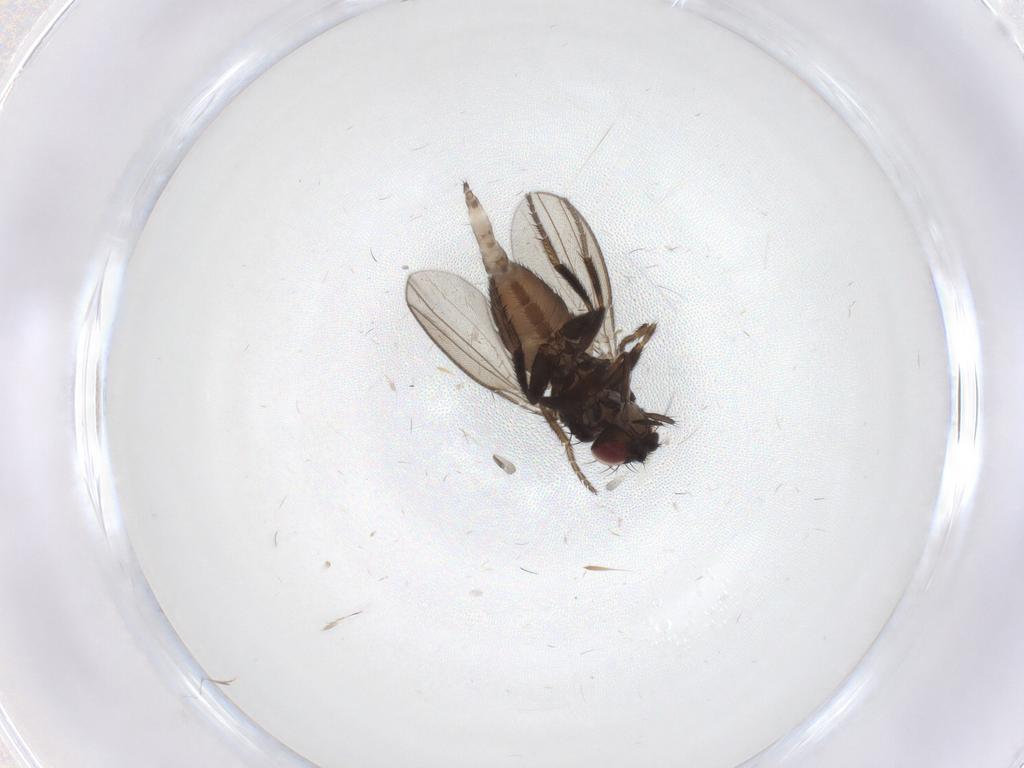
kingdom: Animalia
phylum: Arthropoda
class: Insecta
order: Diptera
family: Milichiidae
